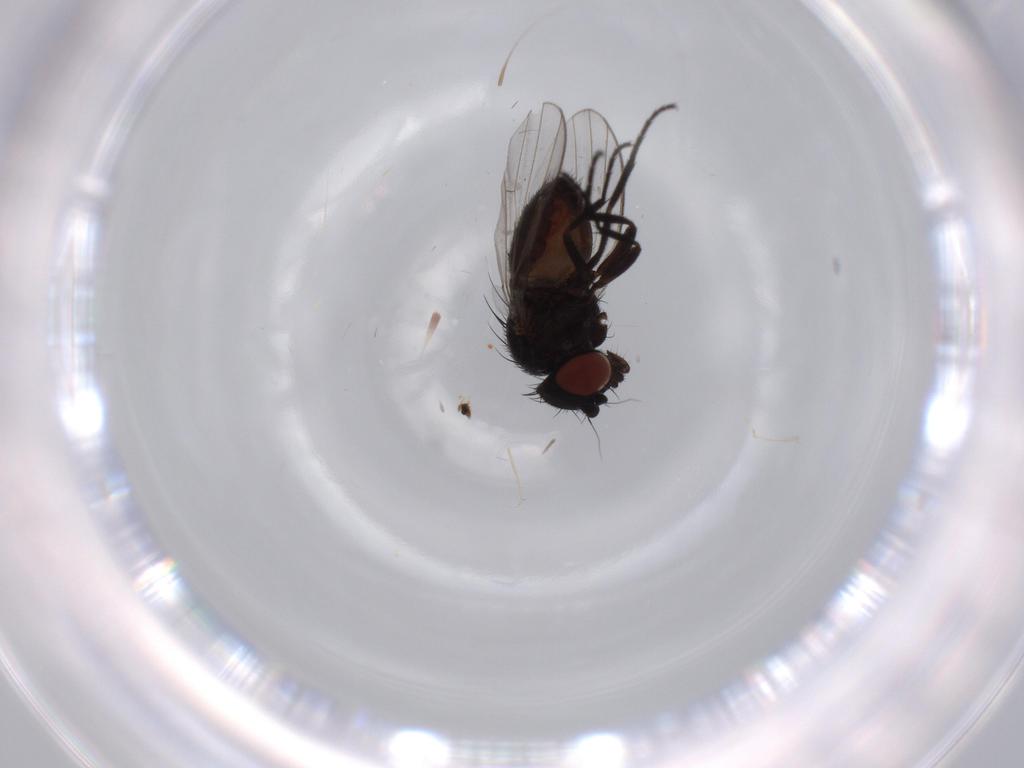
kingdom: Animalia
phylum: Arthropoda
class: Insecta
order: Diptera
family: Milichiidae
